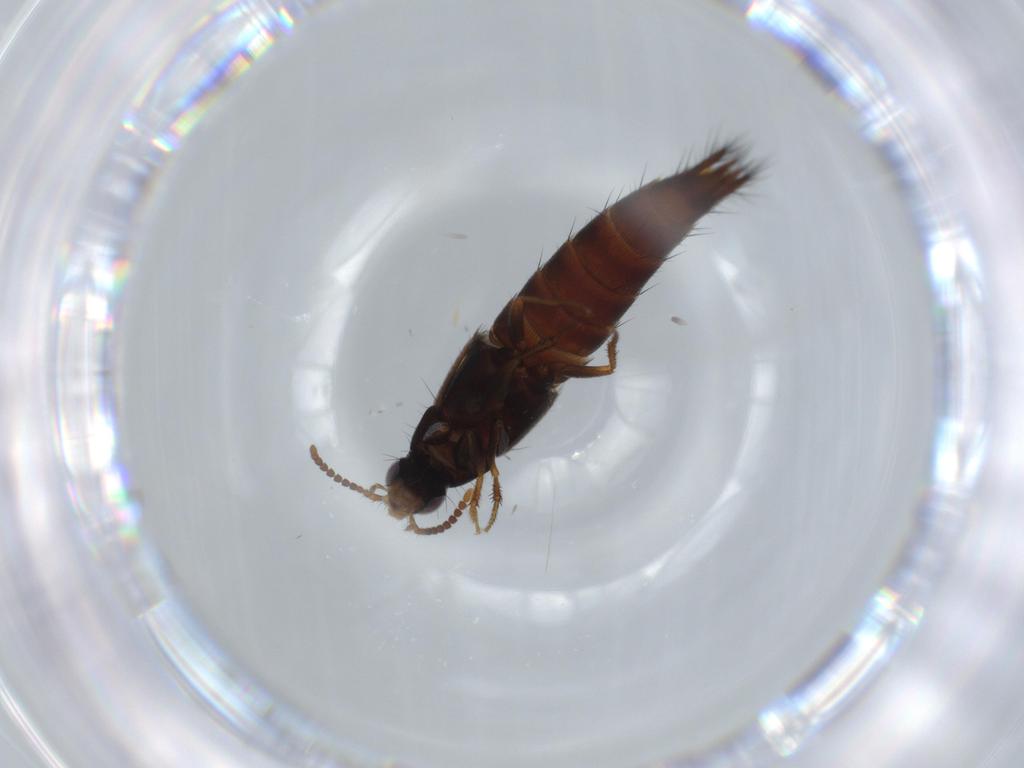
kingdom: Animalia
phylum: Arthropoda
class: Insecta
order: Coleoptera
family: Staphylinidae
